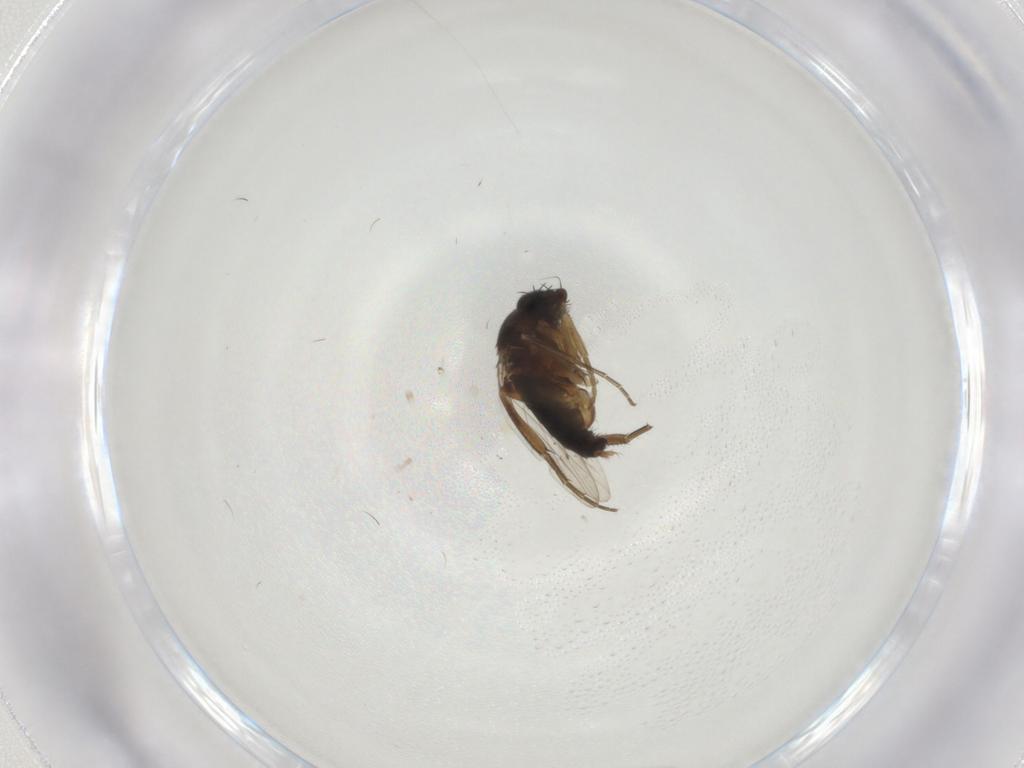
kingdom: Animalia
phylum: Arthropoda
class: Insecta
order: Diptera
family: Phoridae
